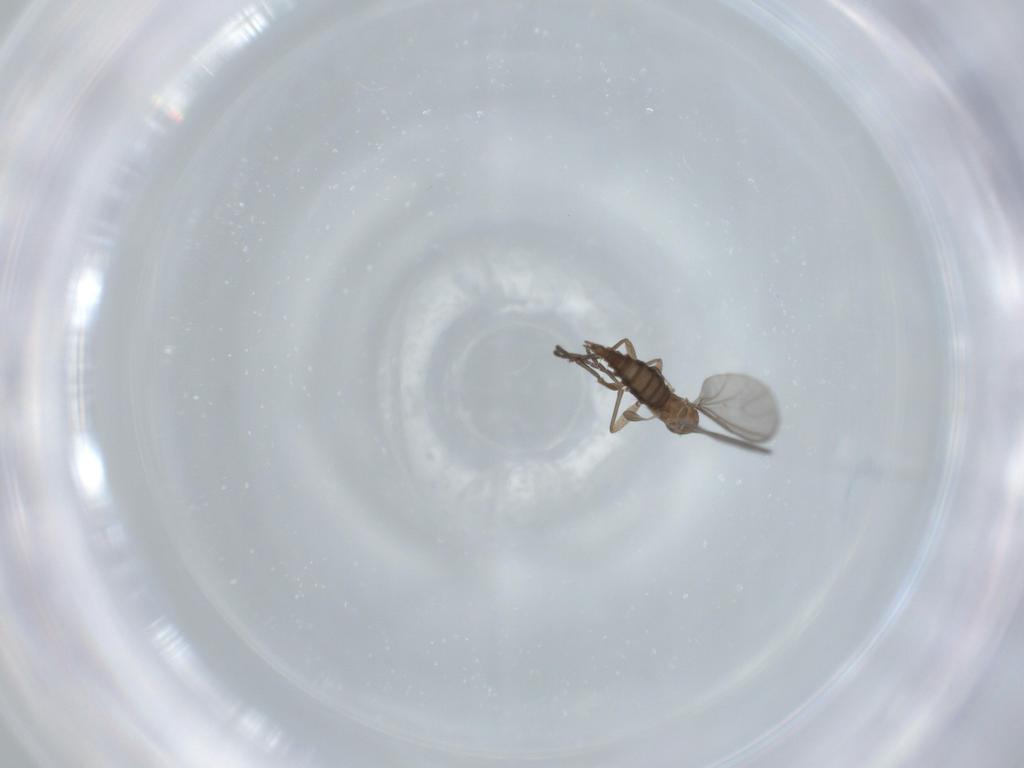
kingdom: Animalia
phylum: Arthropoda
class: Insecta
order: Diptera
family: Sciaridae
